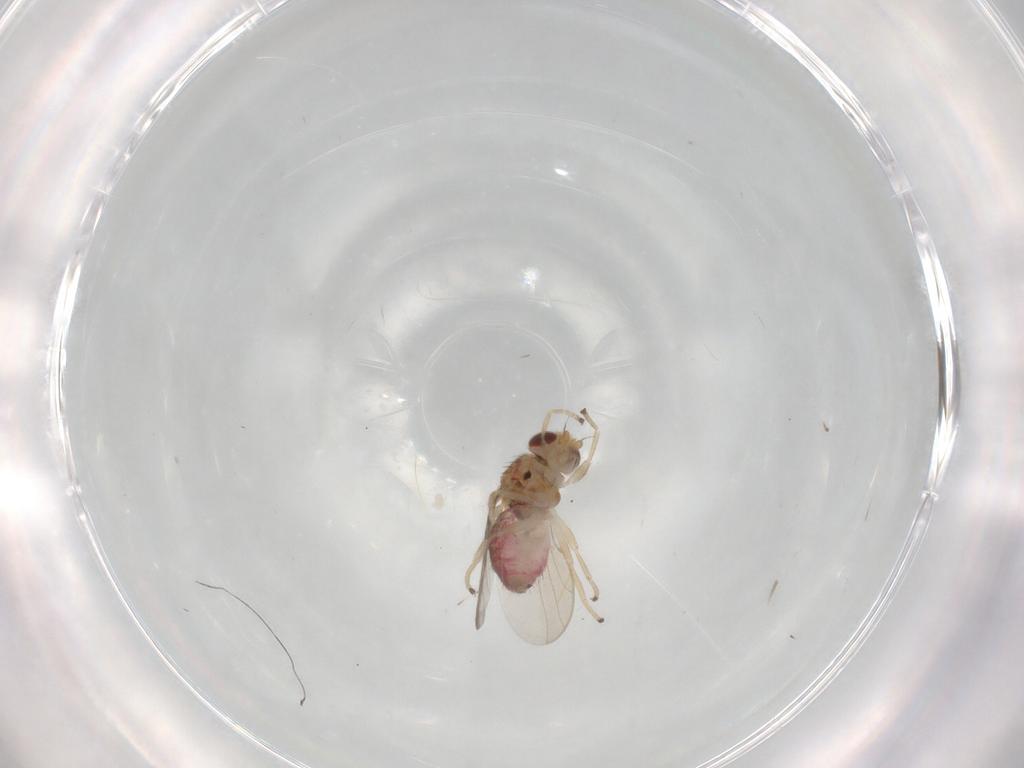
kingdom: Animalia
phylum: Arthropoda
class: Insecta
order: Diptera
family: Chloropidae
